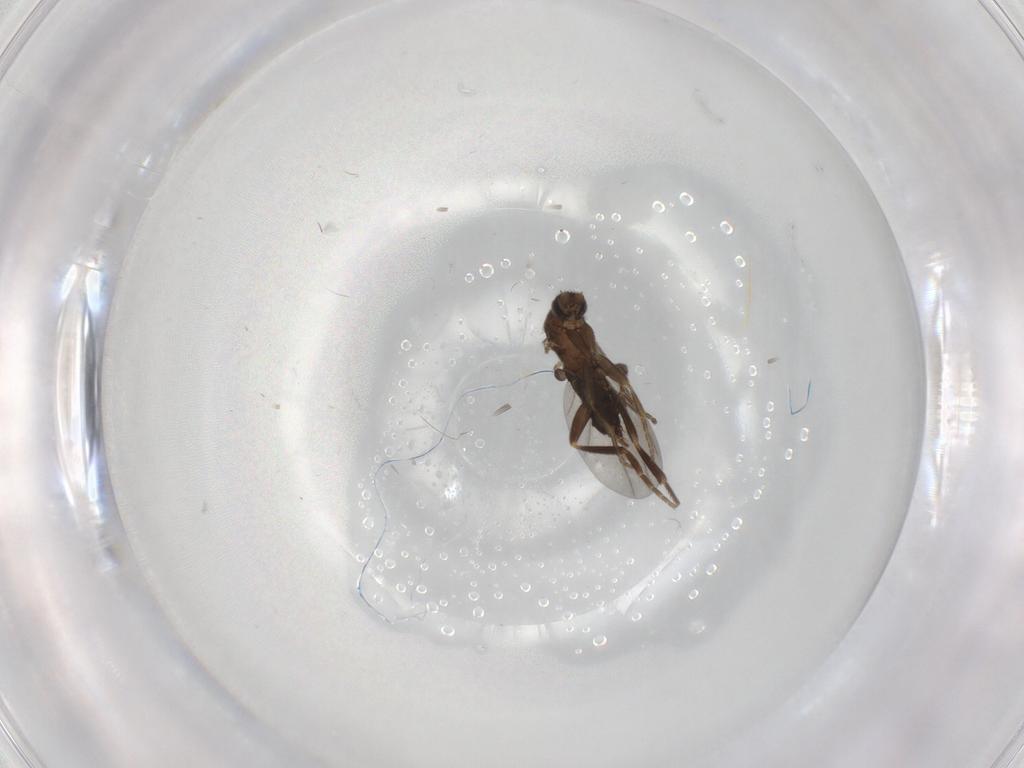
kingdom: Animalia
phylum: Arthropoda
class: Insecta
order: Diptera
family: Phoridae
